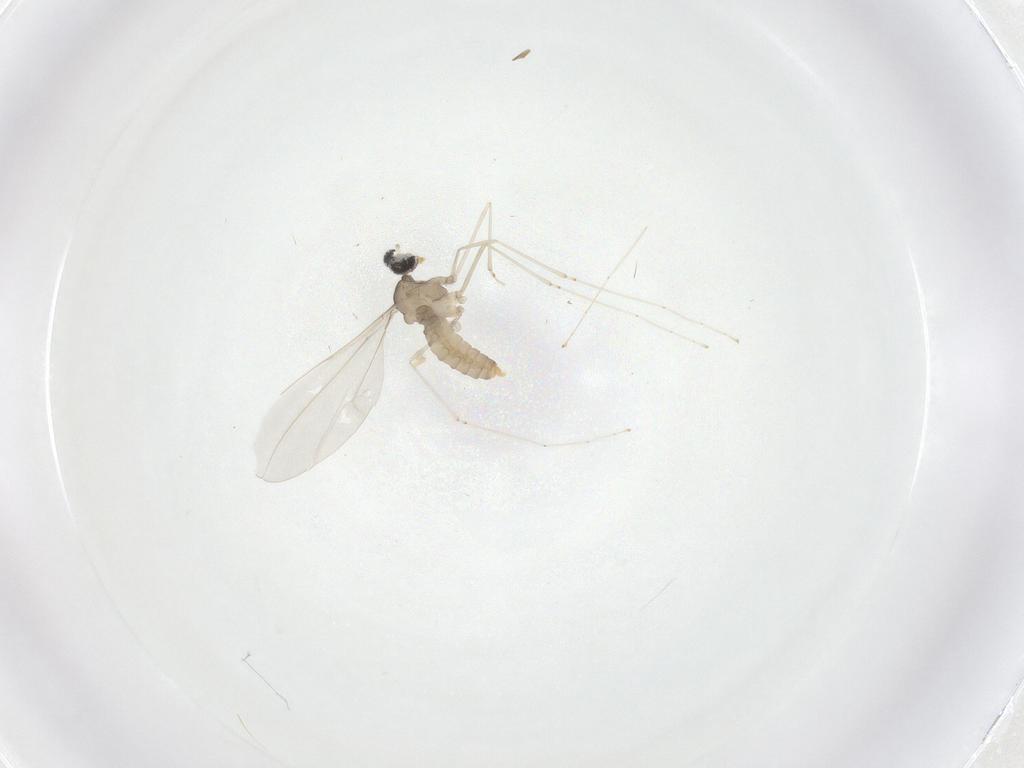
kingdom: Animalia
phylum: Arthropoda
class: Insecta
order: Diptera
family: Cecidomyiidae
